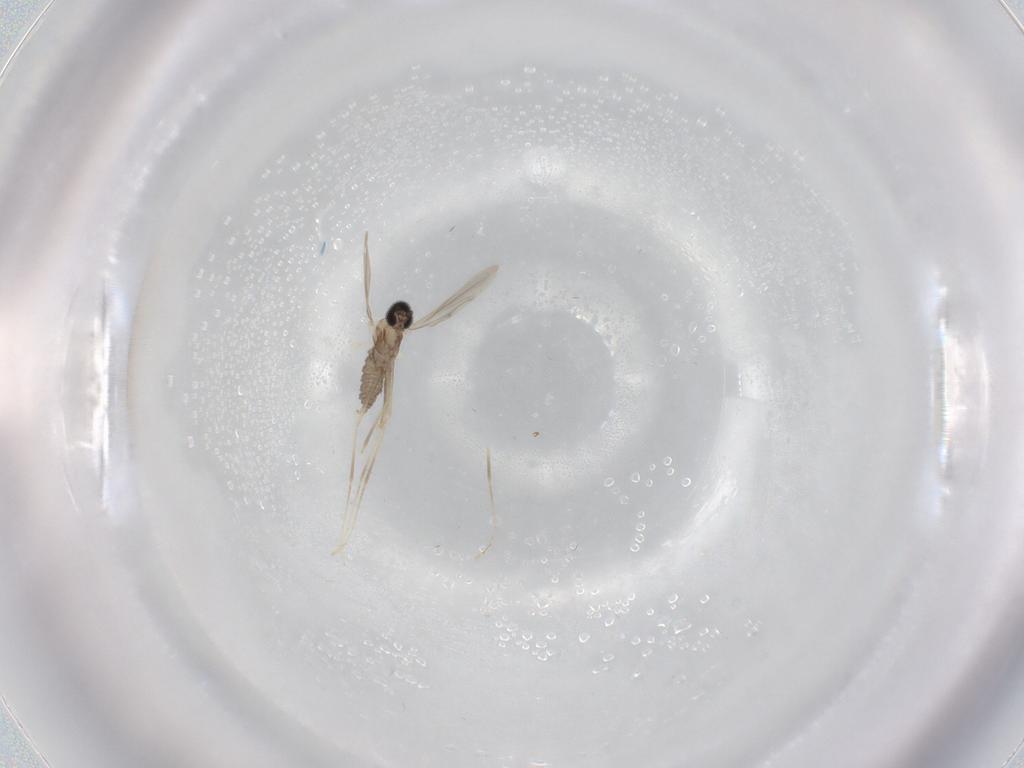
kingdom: Animalia
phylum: Arthropoda
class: Insecta
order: Diptera
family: Cecidomyiidae
